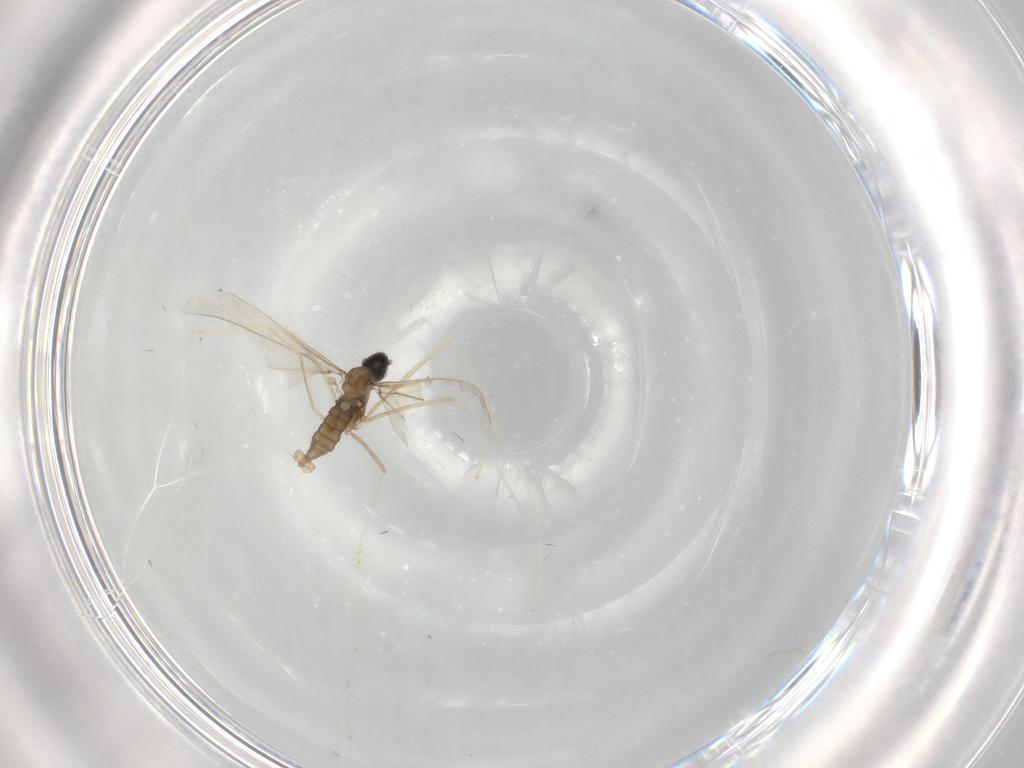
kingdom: Animalia
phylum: Arthropoda
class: Insecta
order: Diptera
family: Cecidomyiidae
